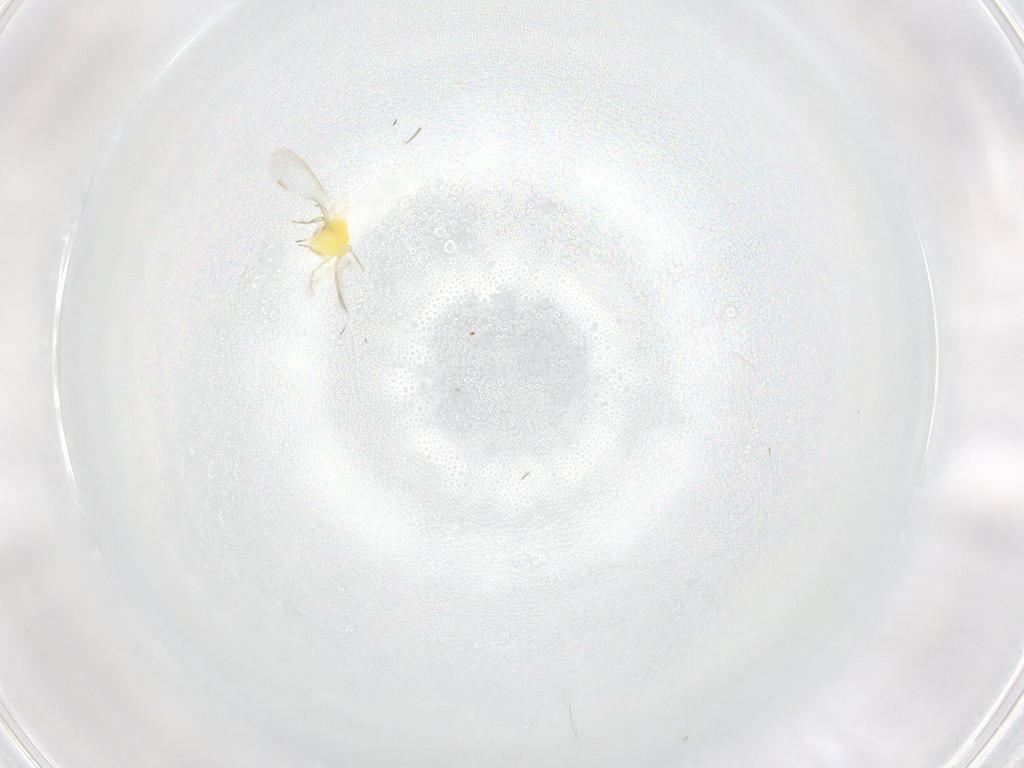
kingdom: Animalia
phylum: Arthropoda
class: Insecta
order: Hemiptera
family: Aleyrodidae
